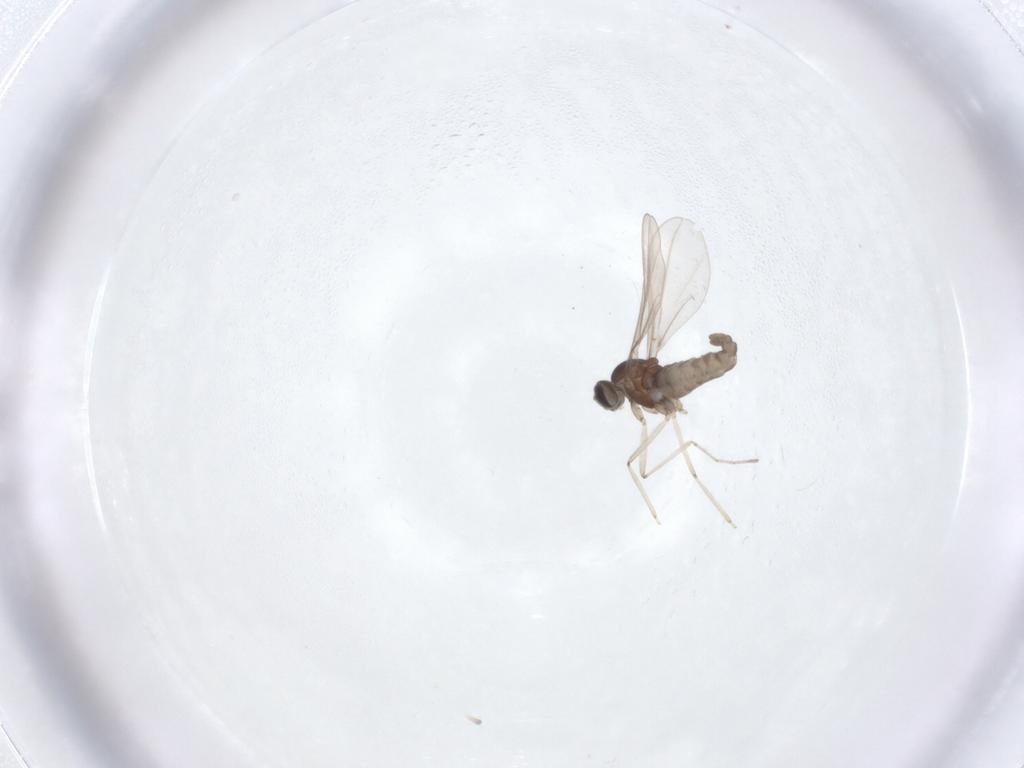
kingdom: Animalia
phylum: Arthropoda
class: Insecta
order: Diptera
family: Cecidomyiidae
